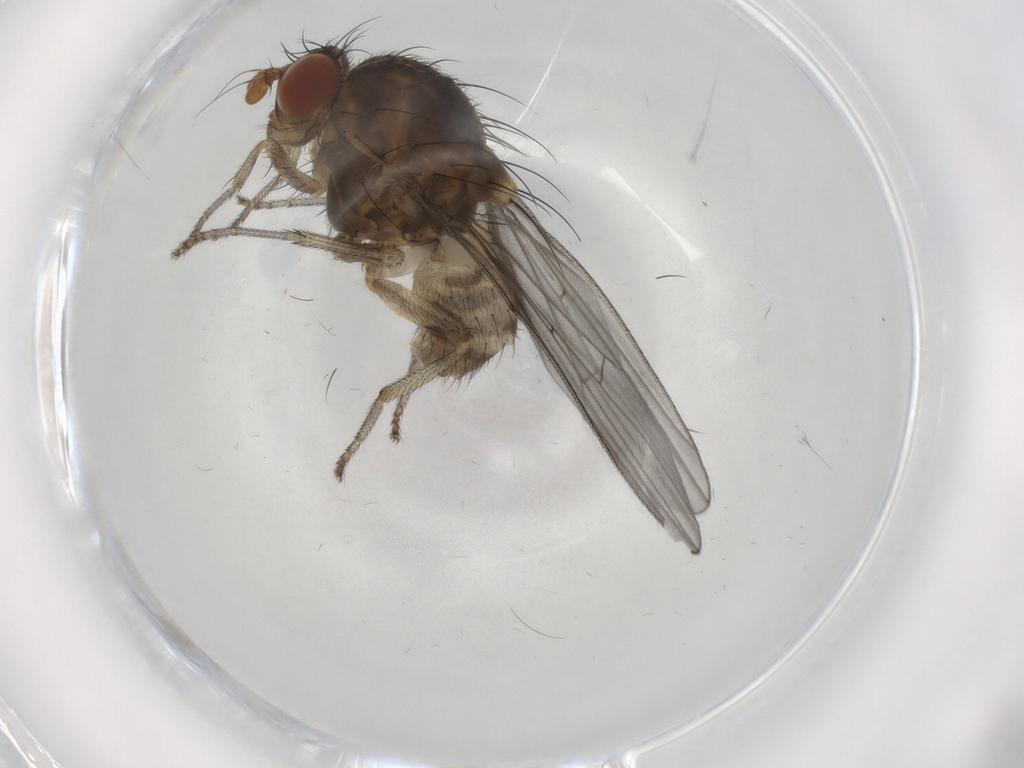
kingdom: Animalia
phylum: Arthropoda
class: Insecta
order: Diptera
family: Lauxaniidae
